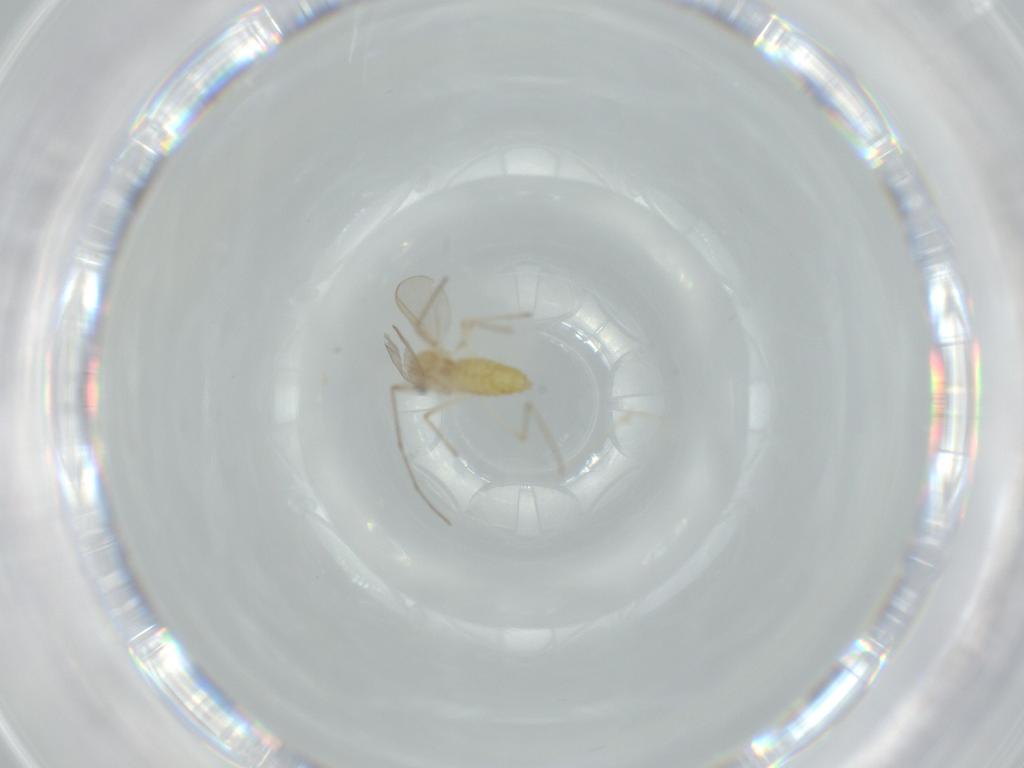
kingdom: Animalia
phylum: Arthropoda
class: Insecta
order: Diptera
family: Chironomidae
